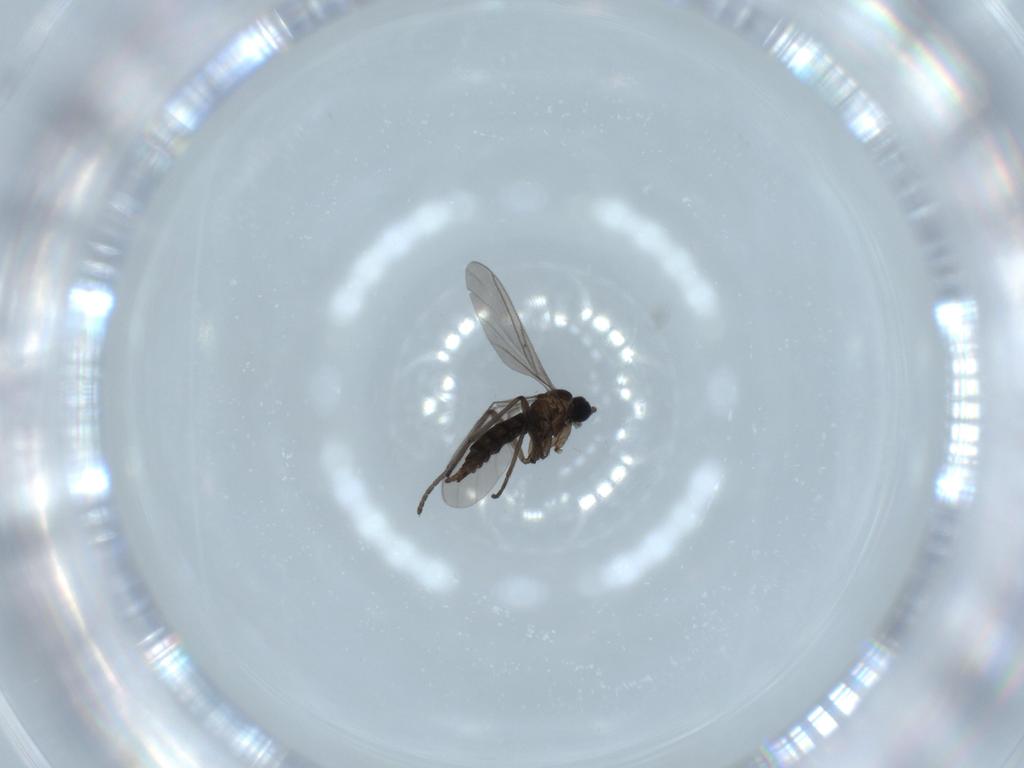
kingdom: Animalia
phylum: Arthropoda
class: Insecta
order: Diptera
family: Sciaridae
